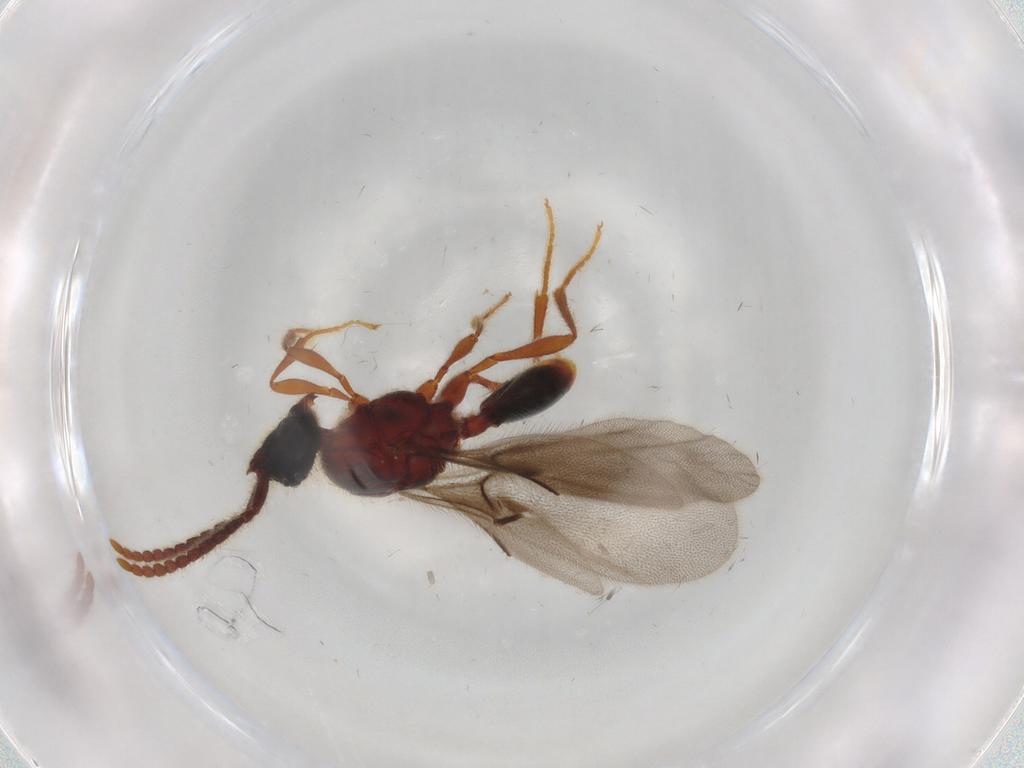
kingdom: Animalia
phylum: Arthropoda
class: Insecta
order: Hymenoptera
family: Diapriidae
